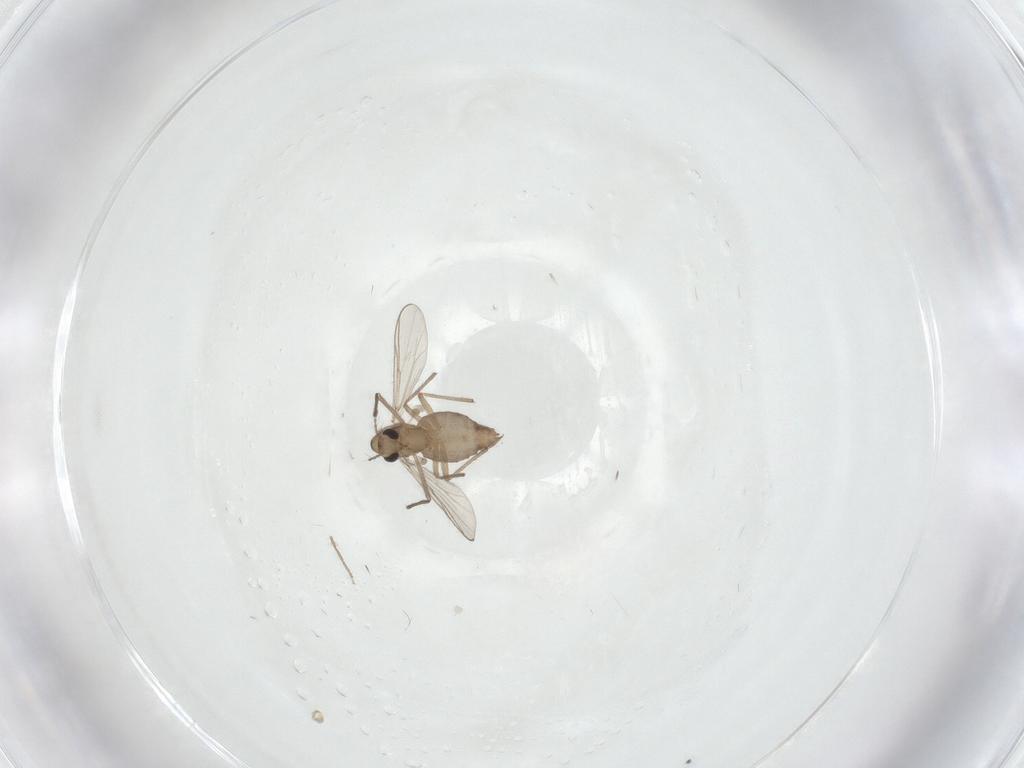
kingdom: Animalia
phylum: Arthropoda
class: Insecta
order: Diptera
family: Chironomidae
